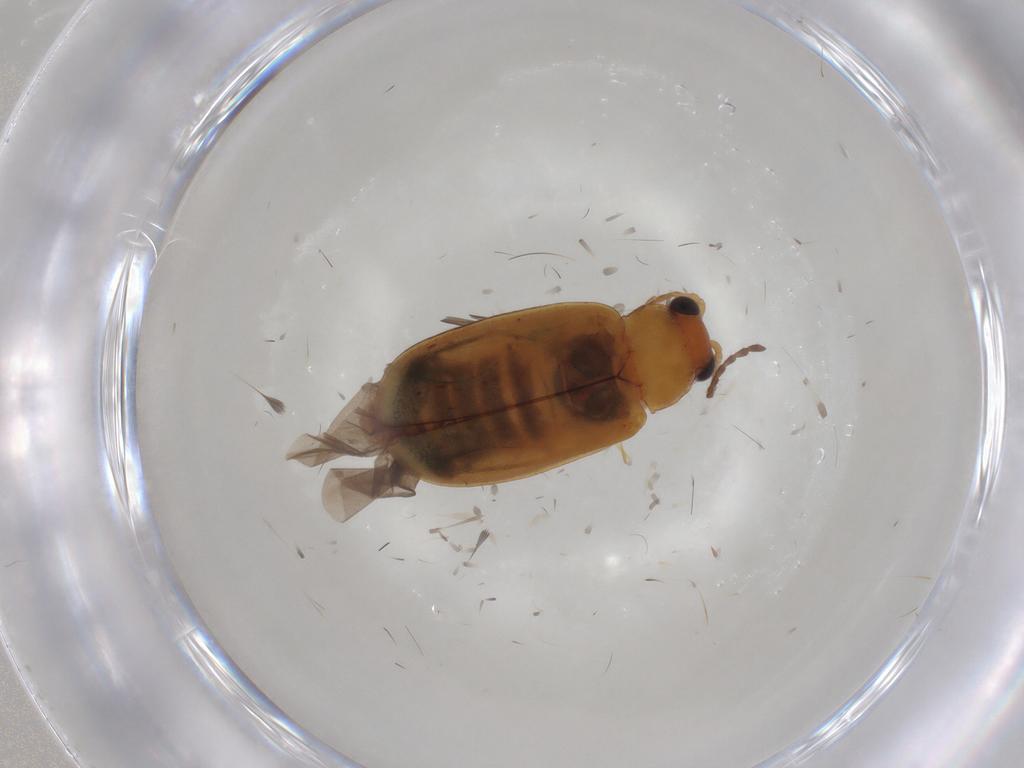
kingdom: Animalia
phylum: Arthropoda
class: Insecta
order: Coleoptera
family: Chrysomelidae
